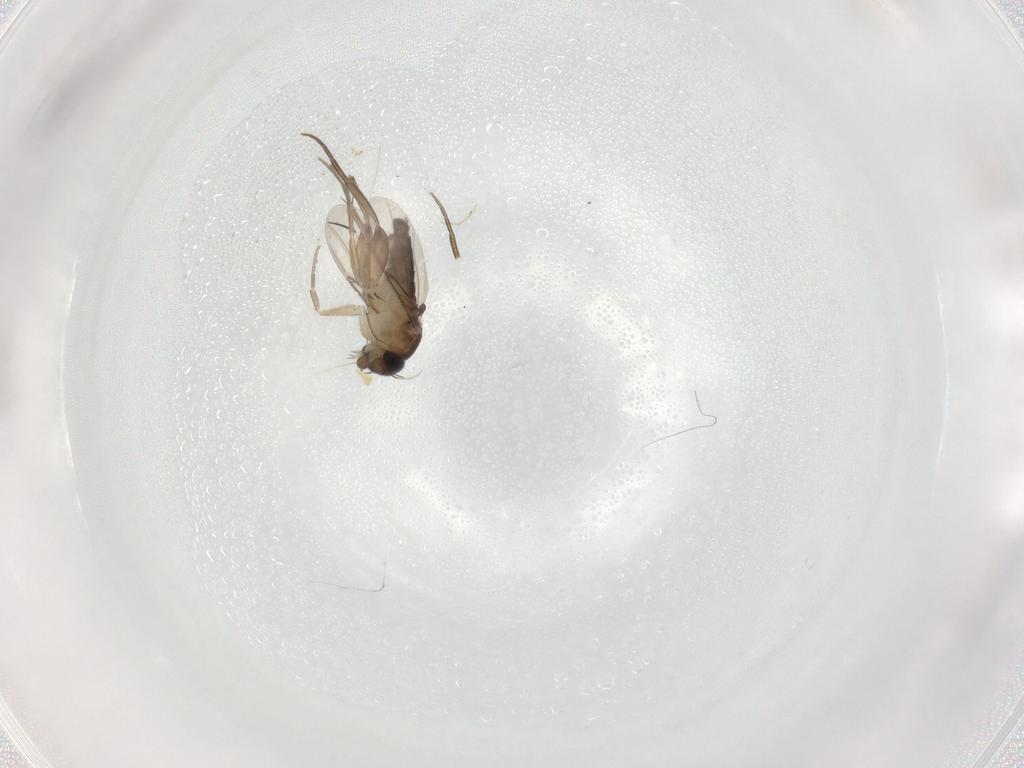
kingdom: Animalia
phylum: Arthropoda
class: Insecta
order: Diptera
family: Phoridae
